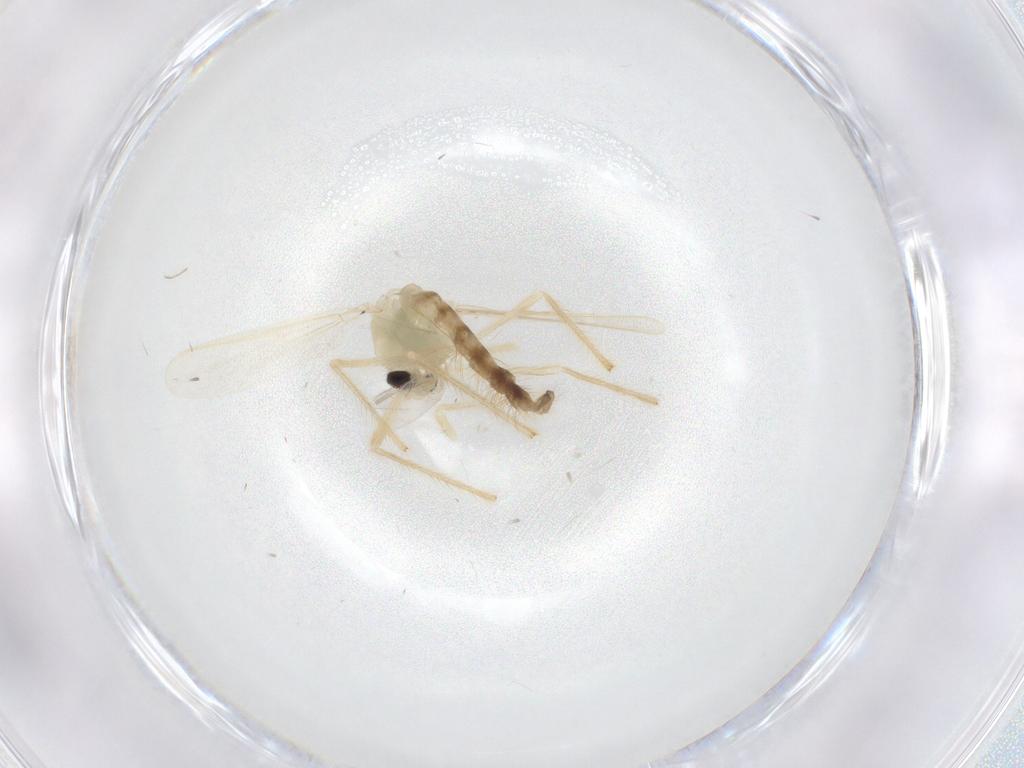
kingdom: Animalia
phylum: Arthropoda
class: Insecta
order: Diptera
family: Chironomidae
